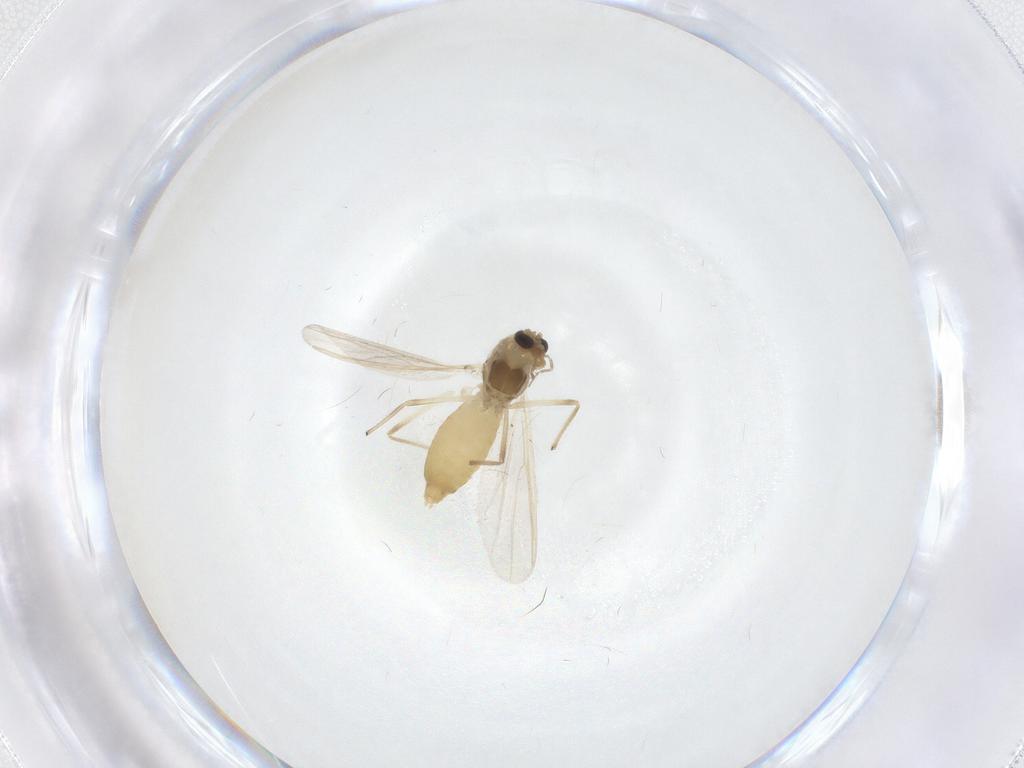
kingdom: Animalia
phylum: Arthropoda
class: Insecta
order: Diptera
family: Chironomidae
